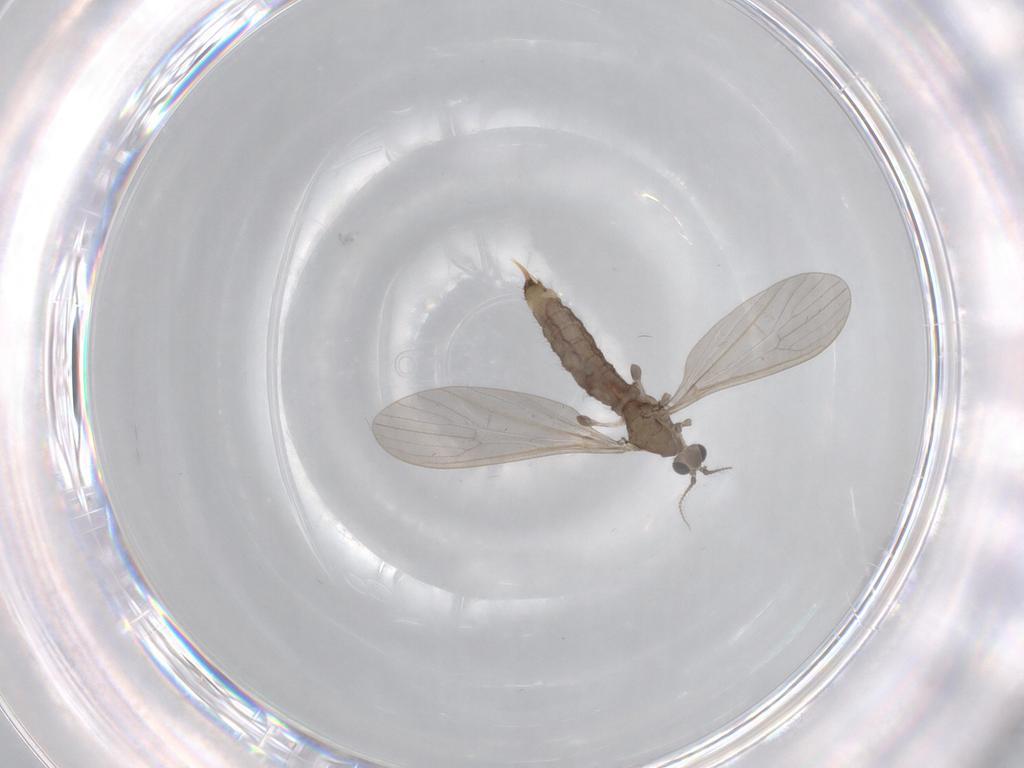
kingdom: Animalia
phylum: Arthropoda
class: Insecta
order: Diptera
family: Limoniidae
